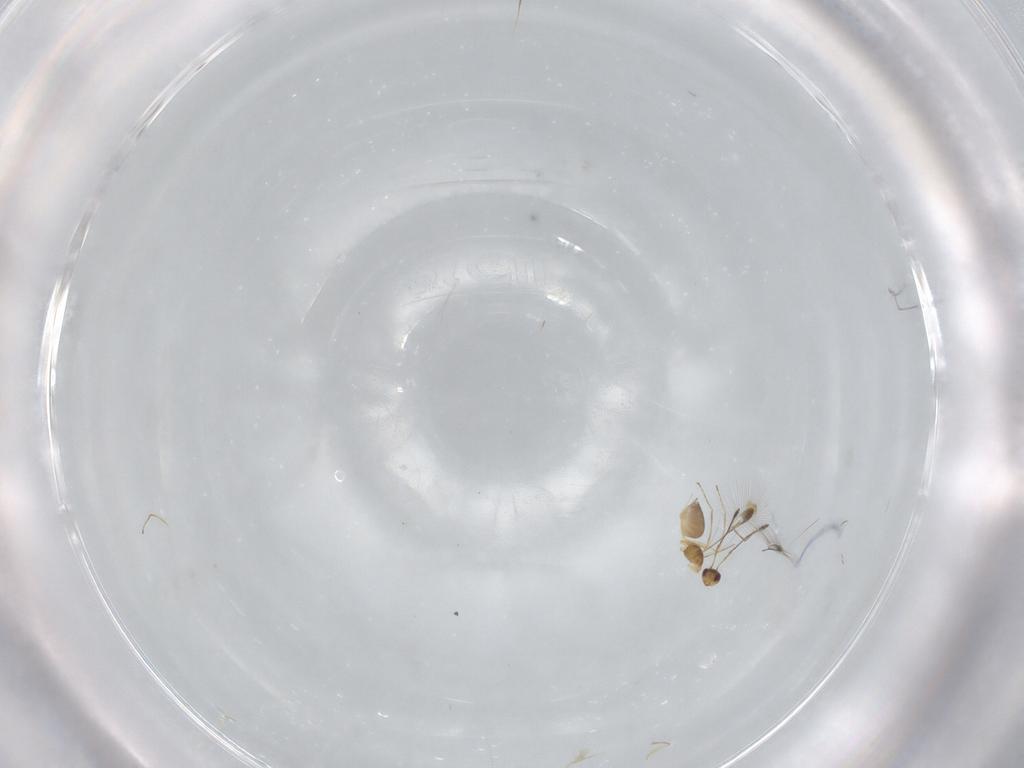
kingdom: Animalia
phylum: Arthropoda
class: Insecta
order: Hymenoptera
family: Mymaridae
